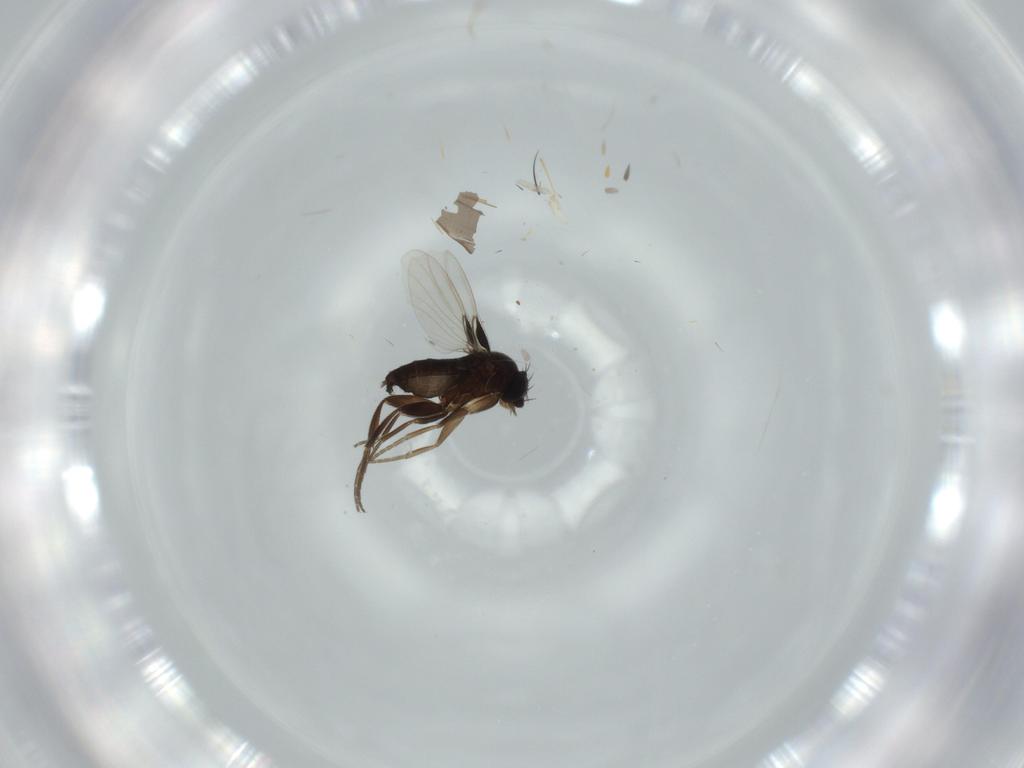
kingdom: Animalia
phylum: Arthropoda
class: Insecta
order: Diptera
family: Phoridae
